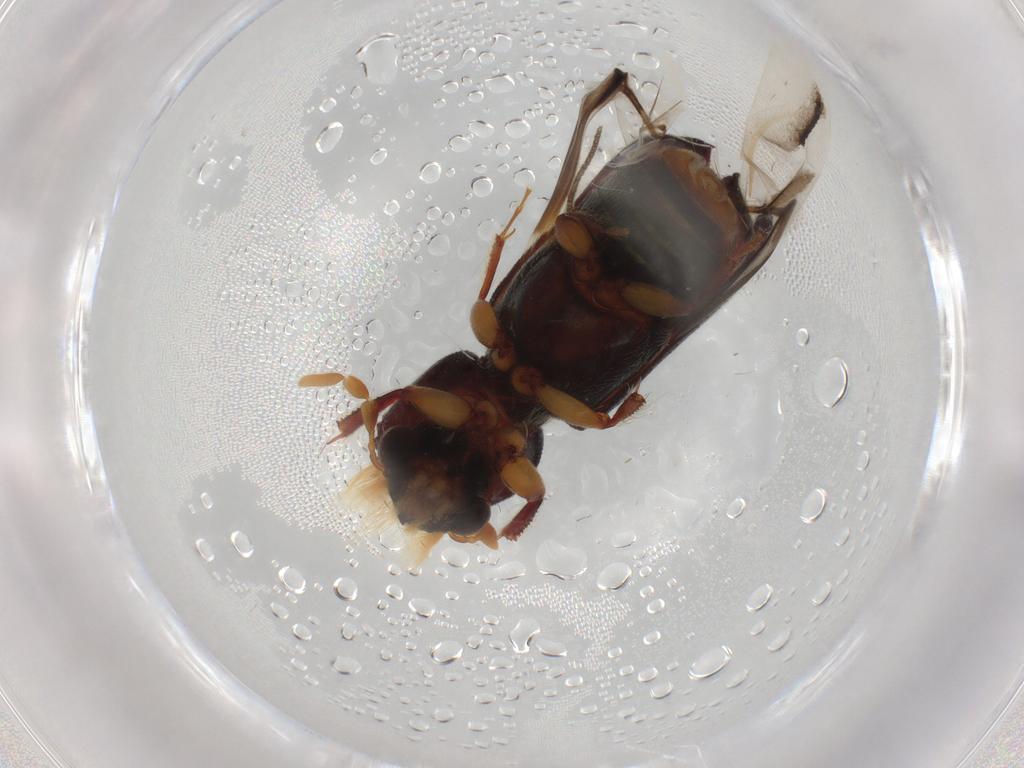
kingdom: Animalia
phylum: Arthropoda
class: Insecta
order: Coleoptera
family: Bostrichidae
